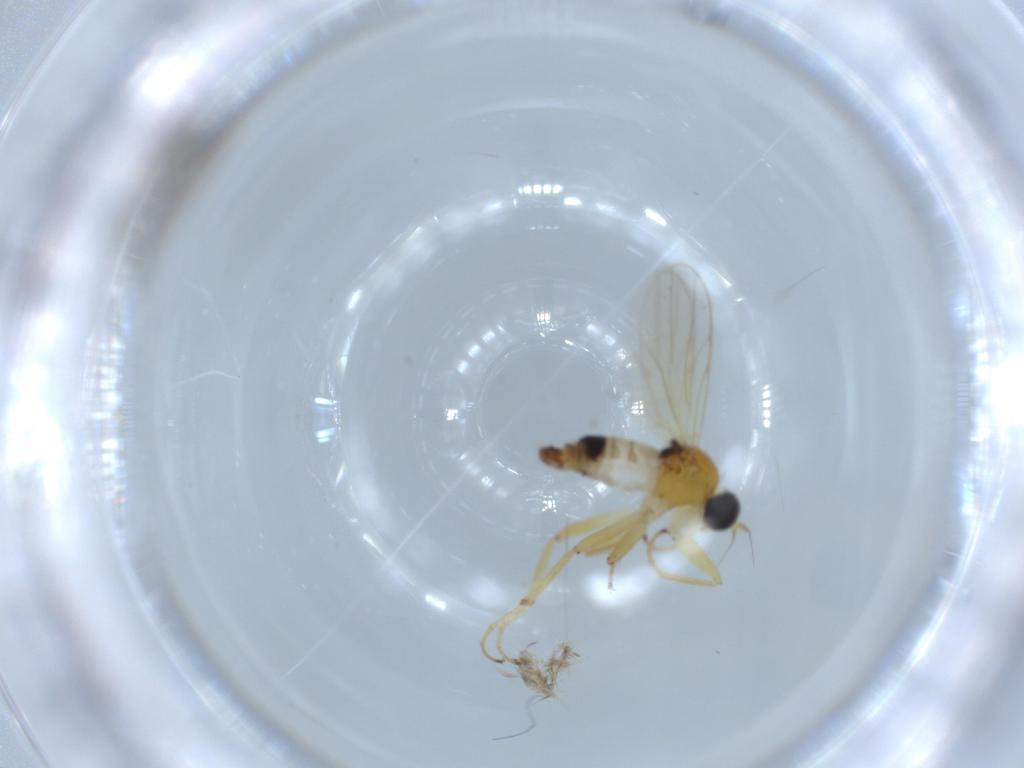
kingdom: Animalia
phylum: Arthropoda
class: Insecta
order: Diptera
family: Hybotidae
